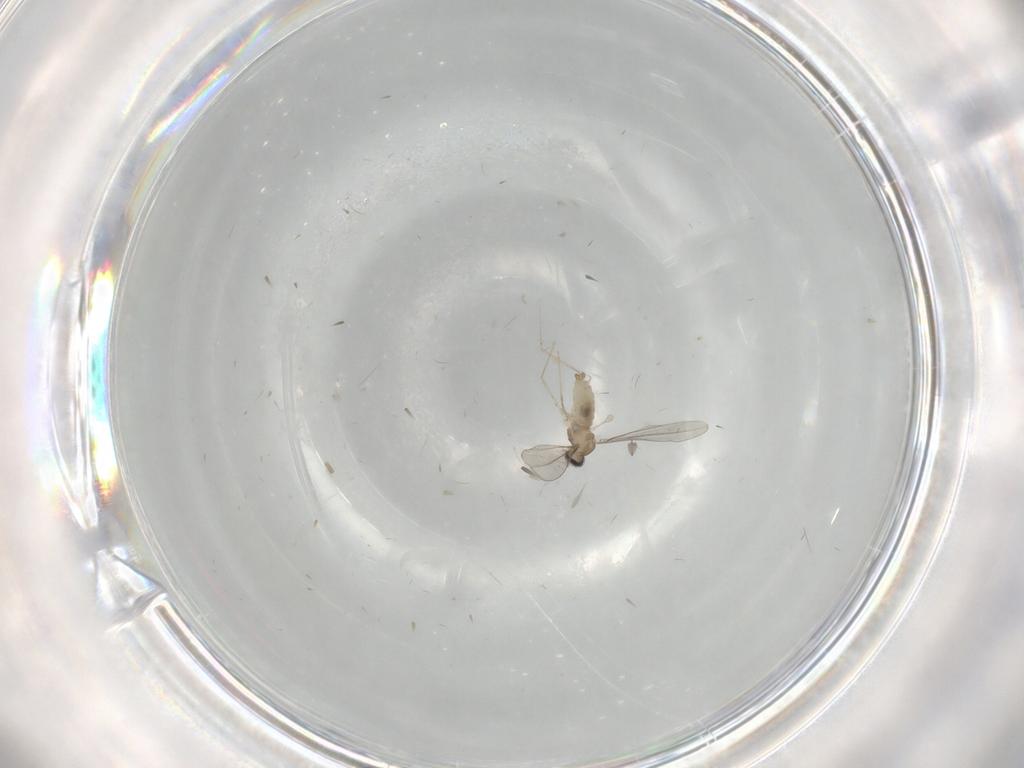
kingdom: Animalia
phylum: Arthropoda
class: Insecta
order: Diptera
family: Cecidomyiidae
